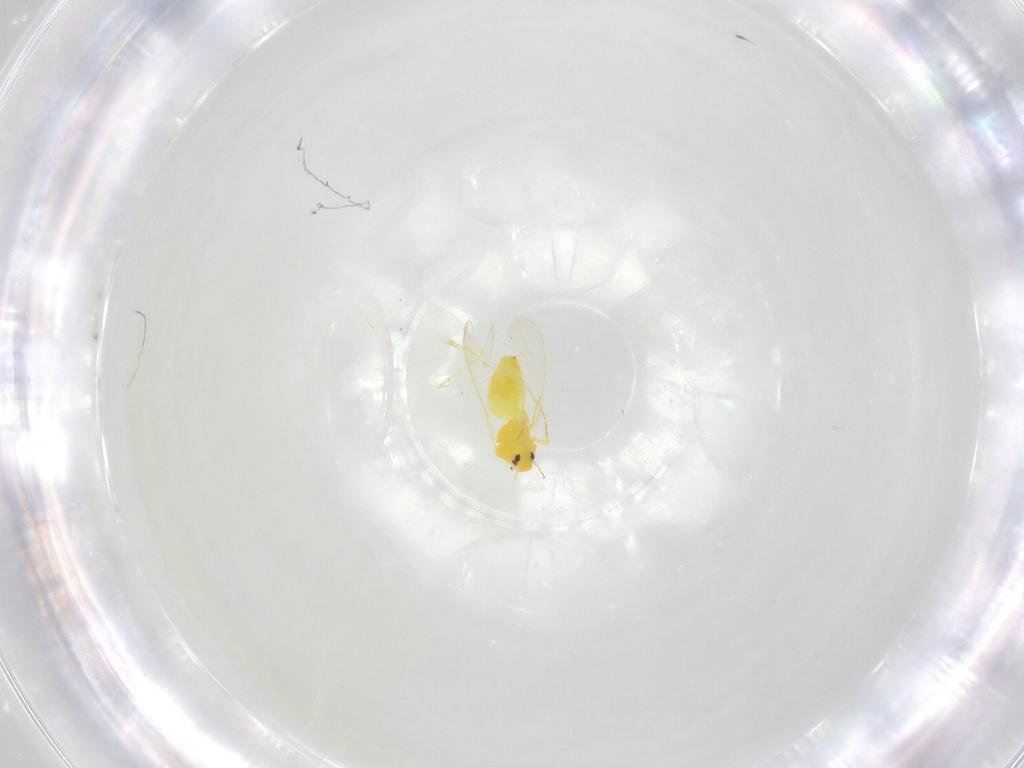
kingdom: Animalia
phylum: Arthropoda
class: Insecta
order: Hemiptera
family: Aleyrodidae
